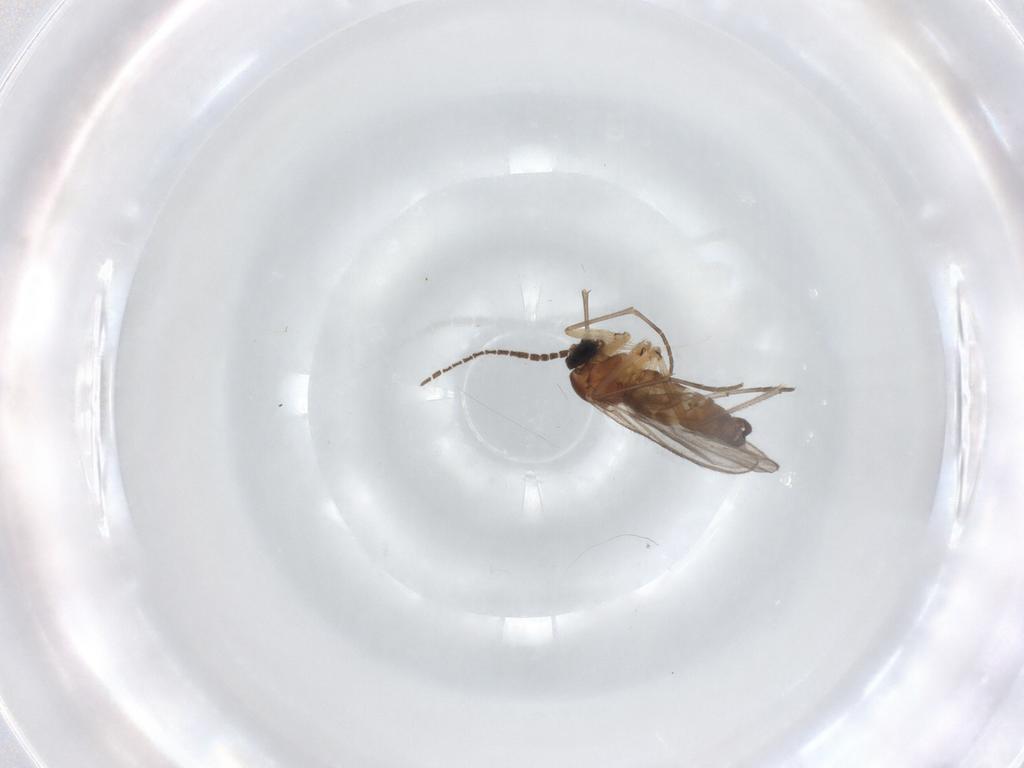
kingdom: Animalia
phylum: Arthropoda
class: Insecta
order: Diptera
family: Sciaridae
